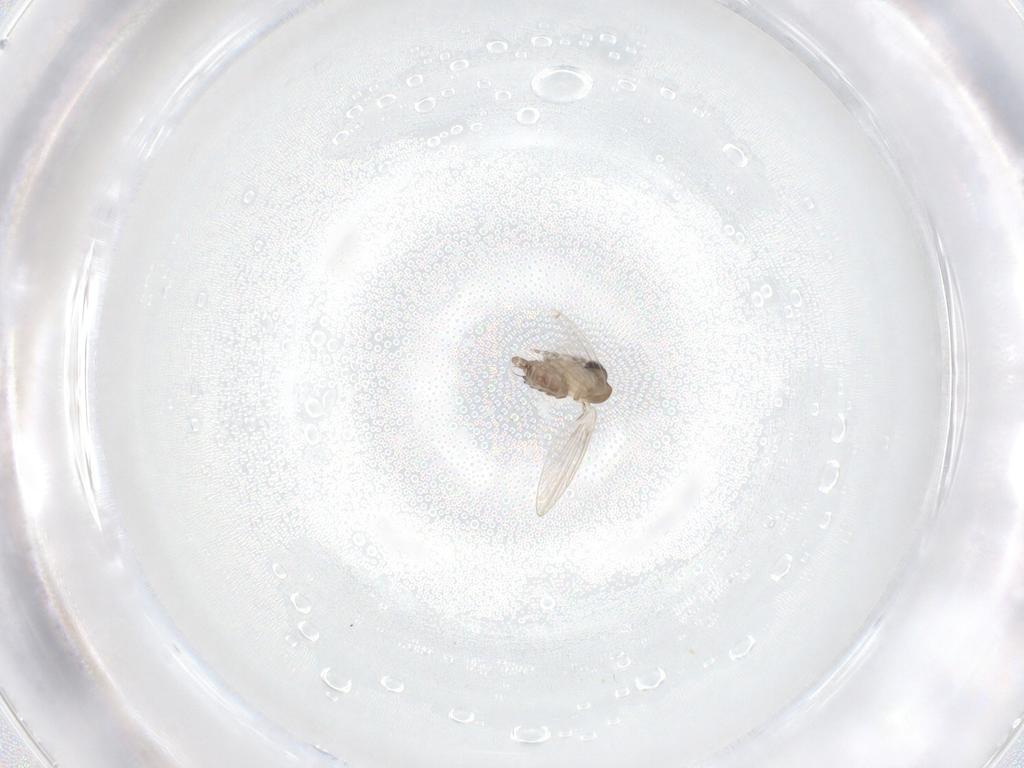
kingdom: Animalia
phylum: Arthropoda
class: Insecta
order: Diptera
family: Psychodidae
